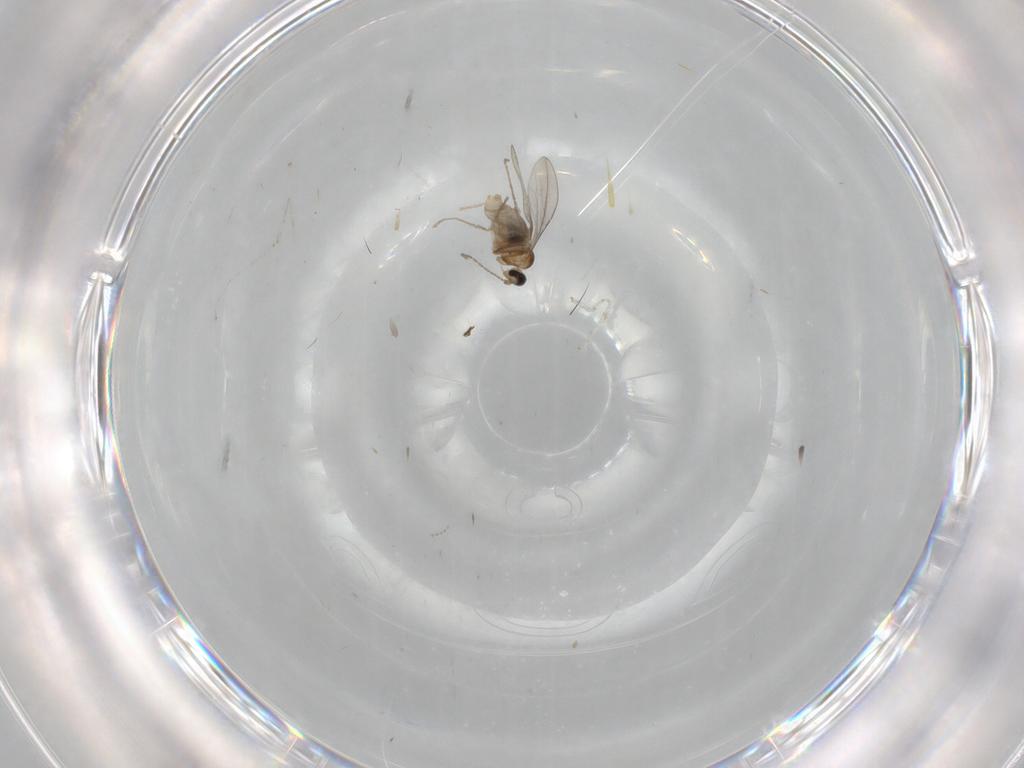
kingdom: Animalia
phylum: Arthropoda
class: Insecta
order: Diptera
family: Cecidomyiidae
